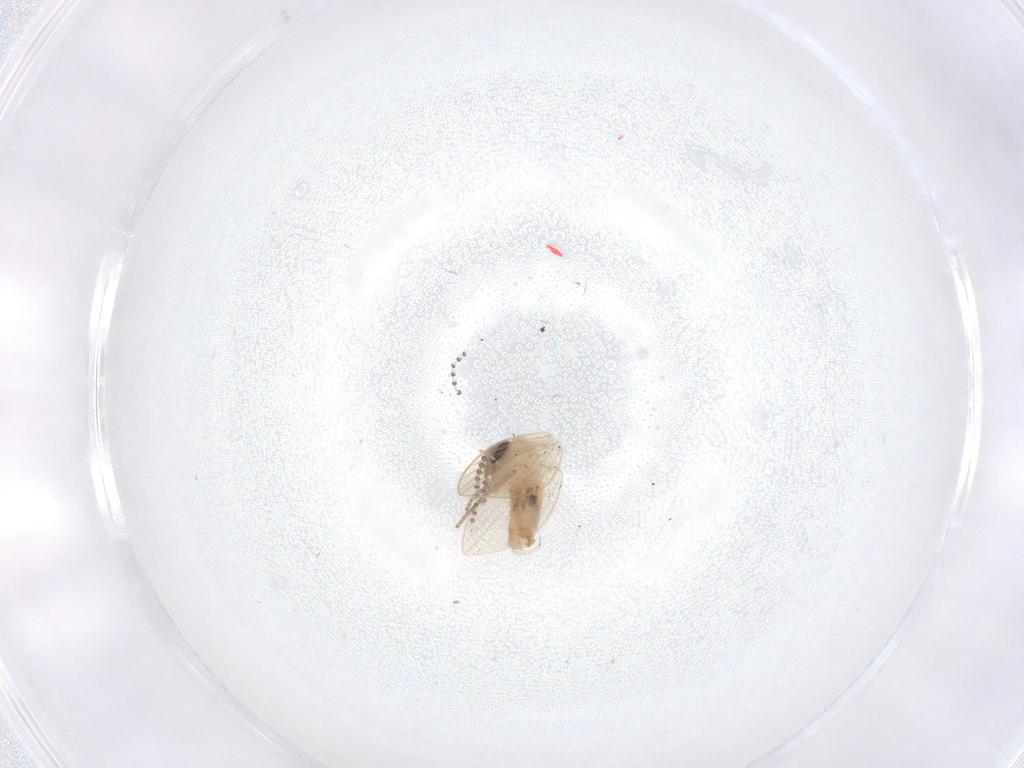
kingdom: Animalia
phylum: Arthropoda
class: Insecta
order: Diptera
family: Psychodidae
